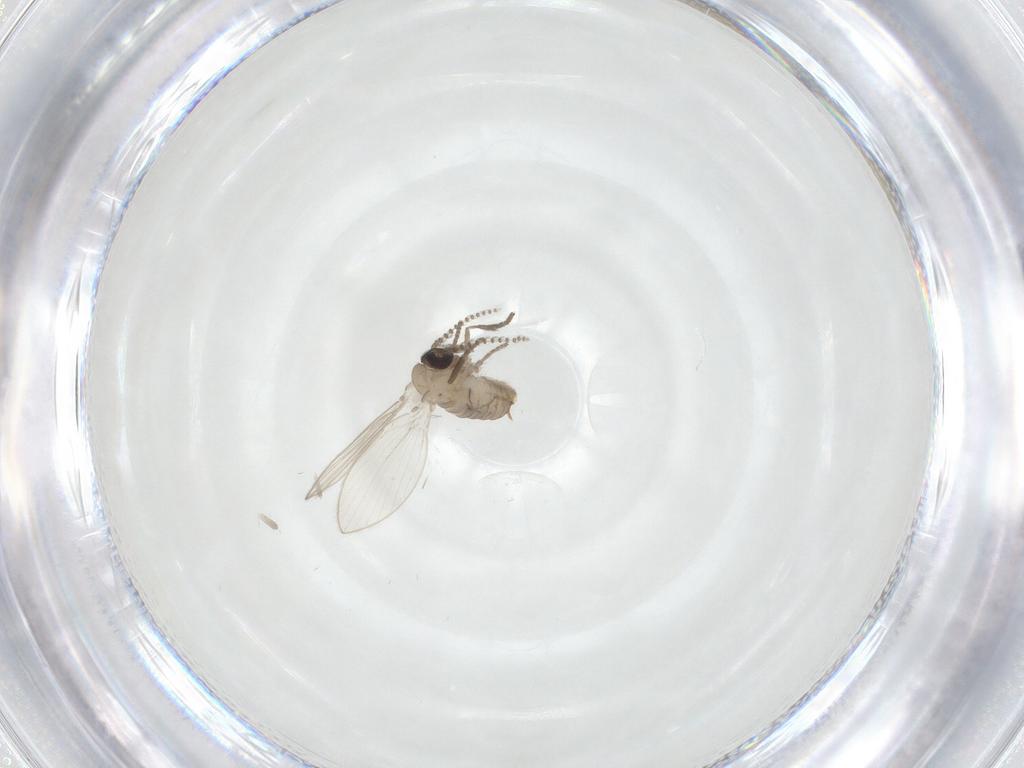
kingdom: Animalia
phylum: Arthropoda
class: Insecta
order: Diptera
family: Psychodidae
